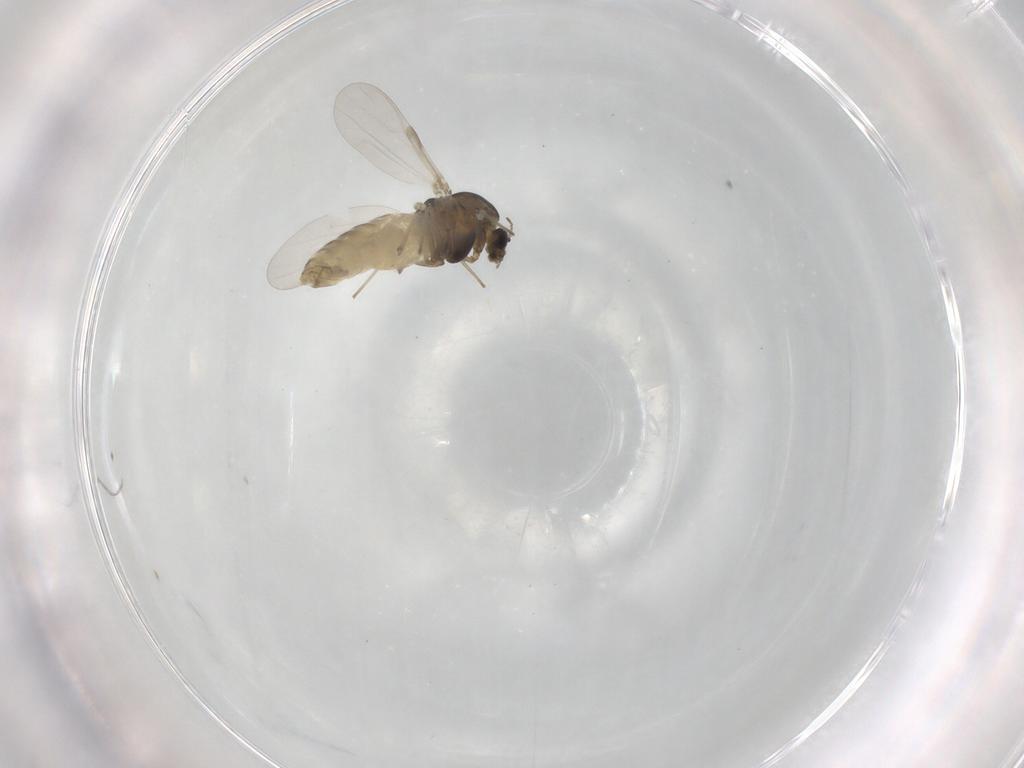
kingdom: Animalia
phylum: Arthropoda
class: Insecta
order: Diptera
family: Chironomidae
